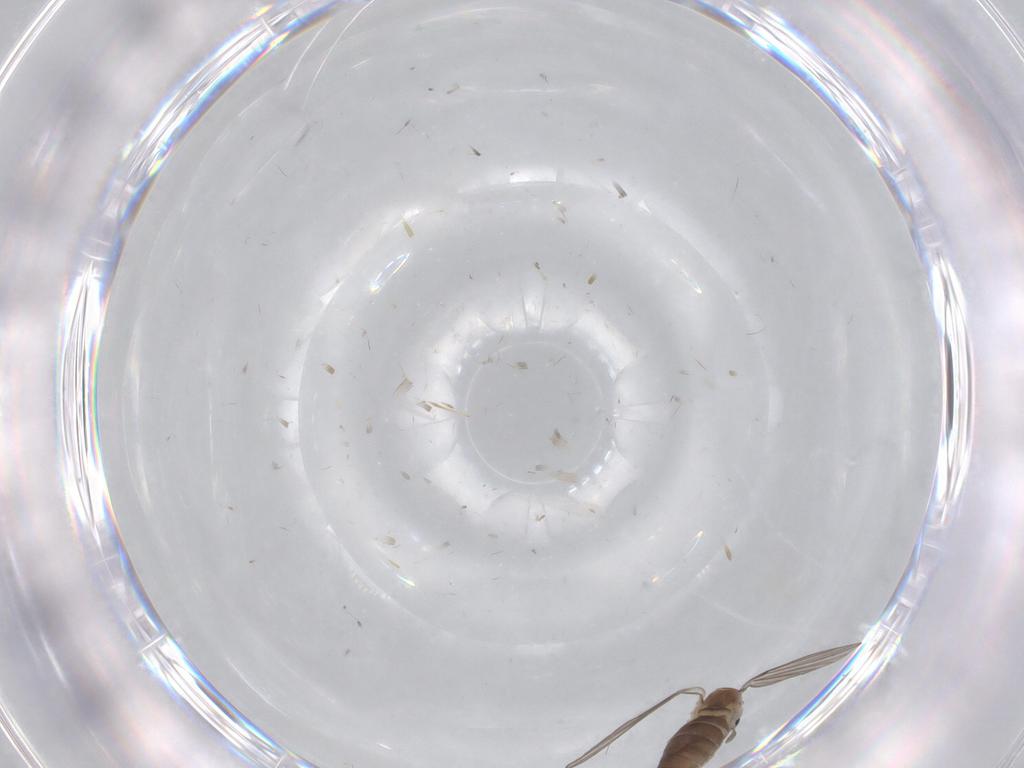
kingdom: Animalia
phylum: Arthropoda
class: Insecta
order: Diptera
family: Psychodidae
